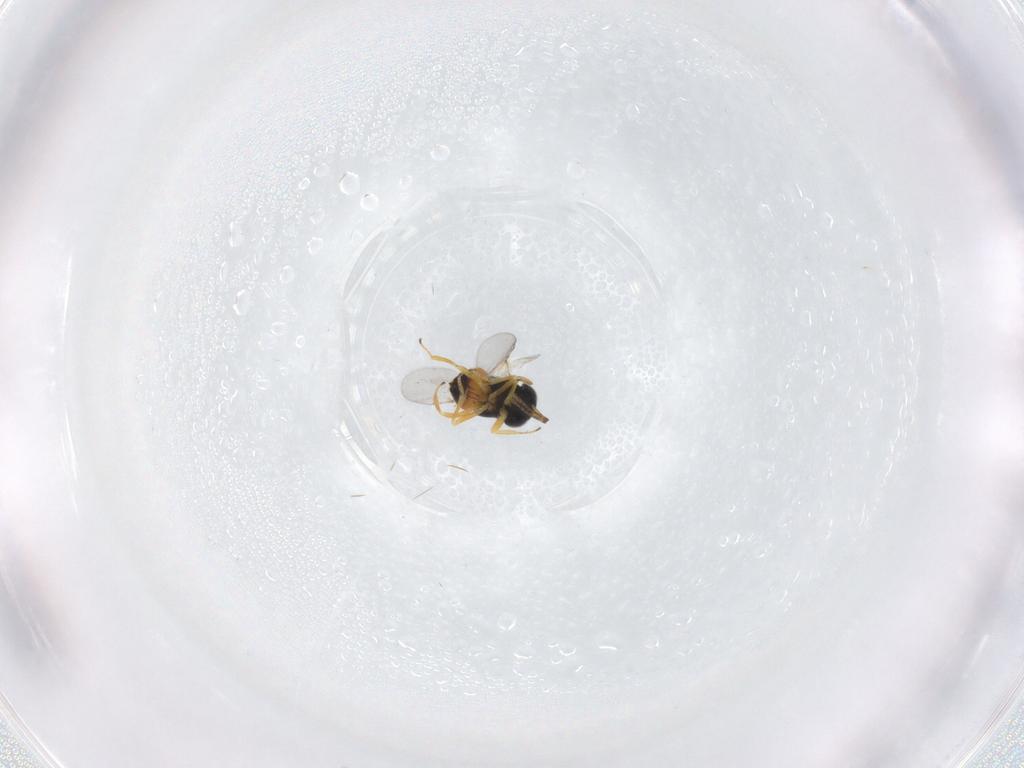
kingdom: Animalia
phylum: Arthropoda
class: Insecta
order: Hymenoptera
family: Encyrtidae
